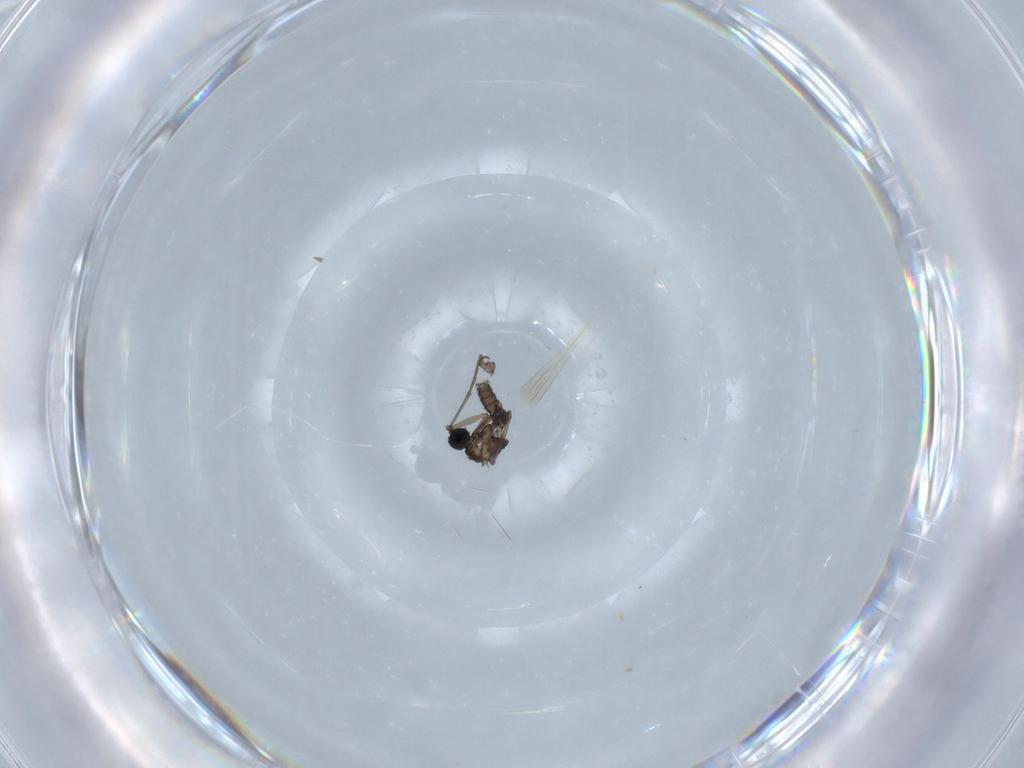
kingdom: Animalia
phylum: Arthropoda
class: Insecta
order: Diptera
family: Sciaridae
